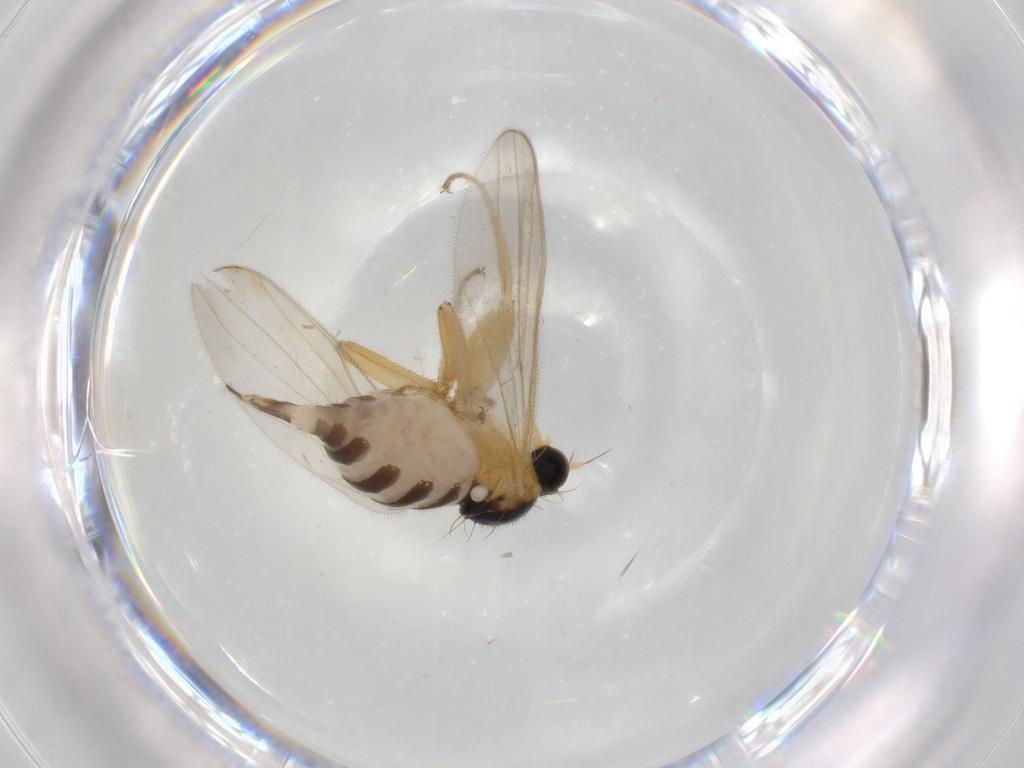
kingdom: Animalia
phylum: Arthropoda
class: Insecta
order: Diptera
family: Hybotidae
